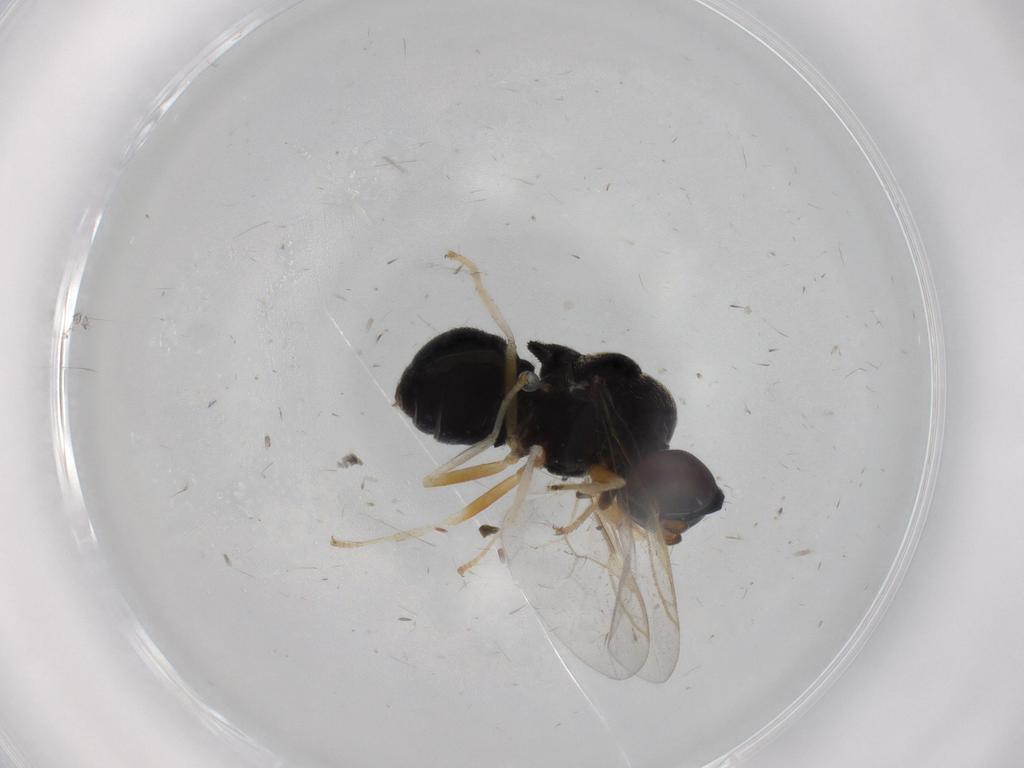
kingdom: Animalia
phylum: Arthropoda
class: Insecta
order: Diptera
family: Stratiomyidae
